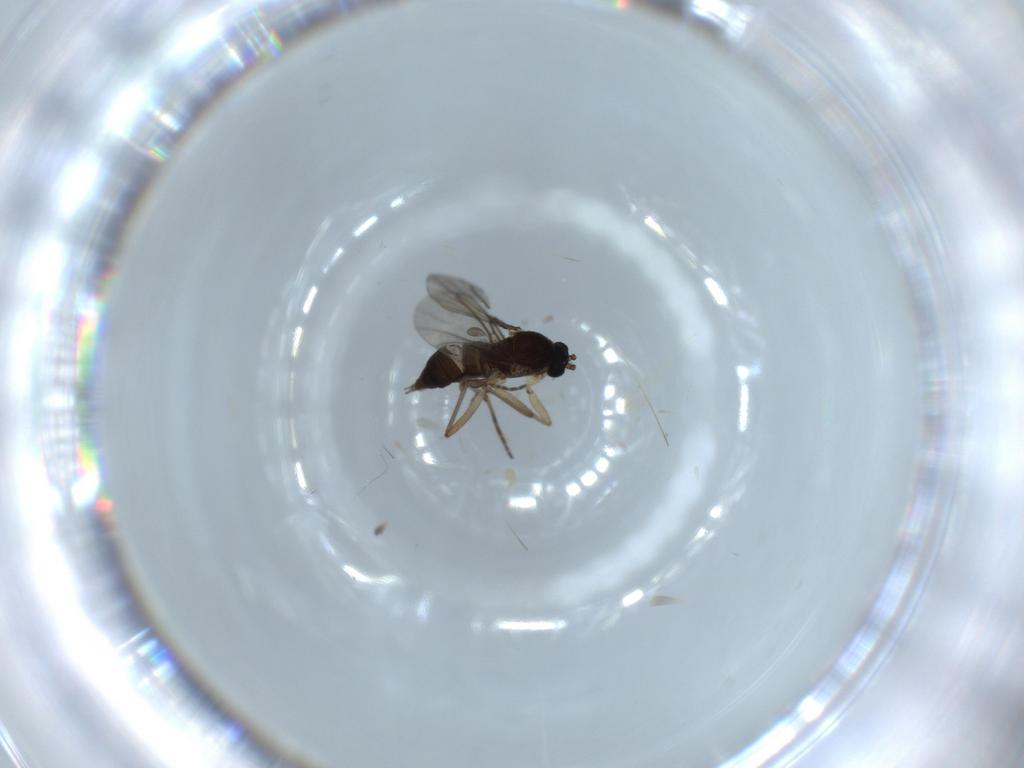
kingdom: Animalia
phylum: Arthropoda
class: Insecta
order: Diptera
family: Sciaridae
